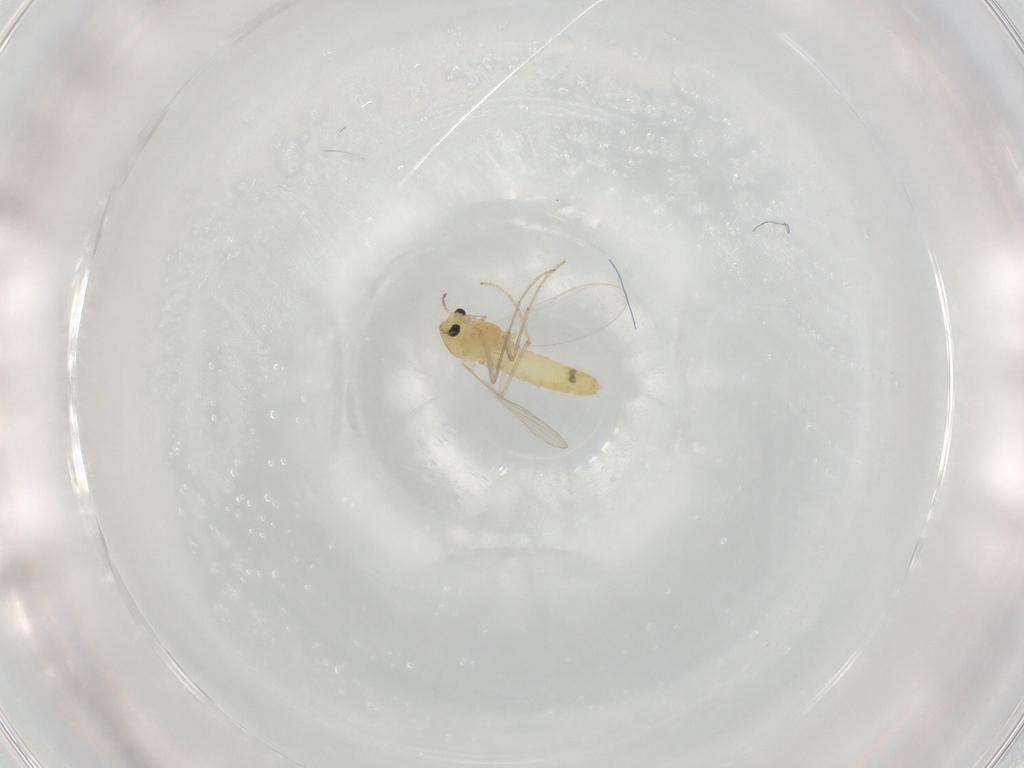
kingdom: Animalia
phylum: Arthropoda
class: Insecta
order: Diptera
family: Chironomidae
